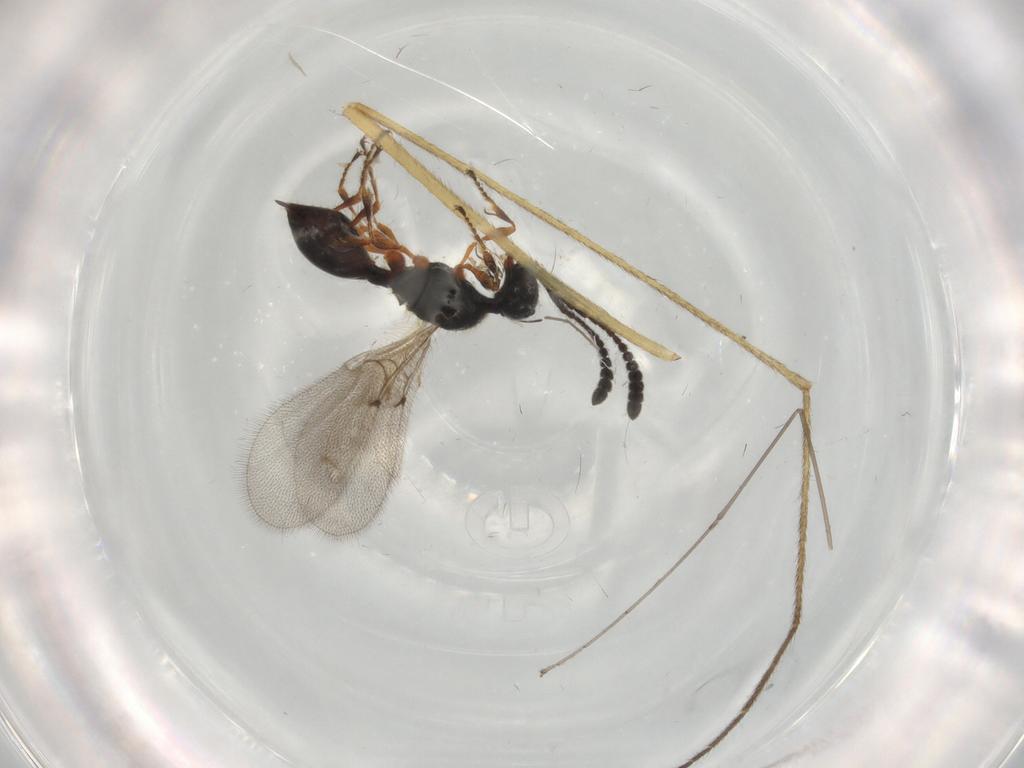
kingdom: Animalia
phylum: Arthropoda
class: Insecta
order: Hymenoptera
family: Diapriidae
